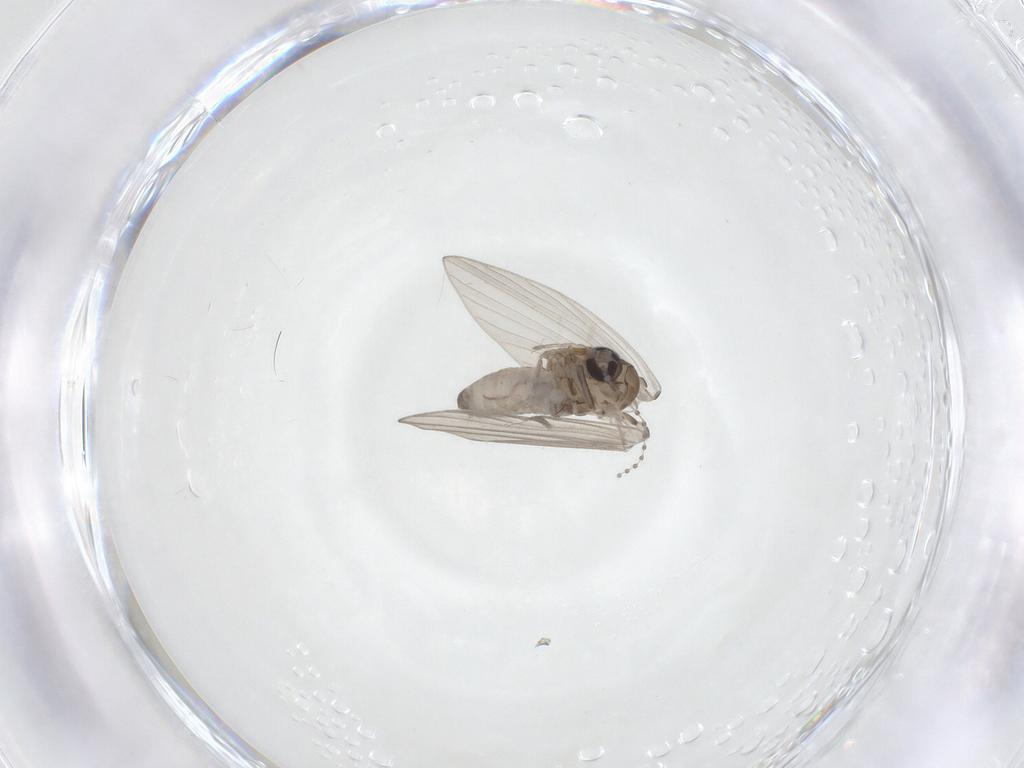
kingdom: Animalia
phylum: Arthropoda
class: Insecta
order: Diptera
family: Psychodidae
